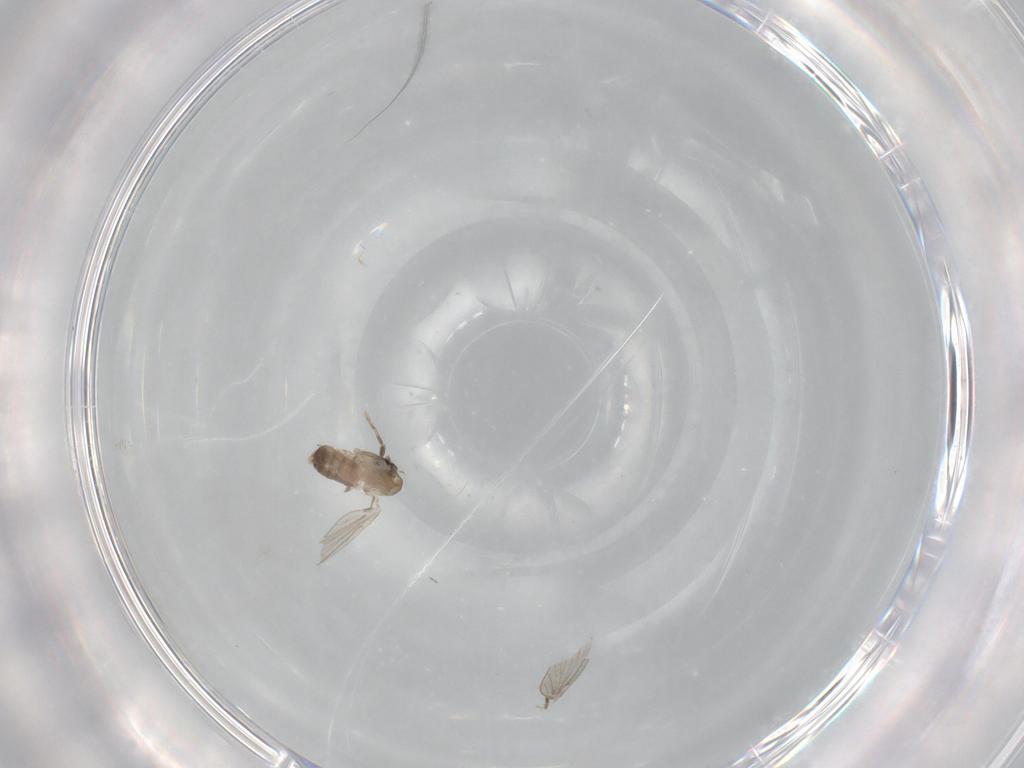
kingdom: Animalia
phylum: Arthropoda
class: Insecta
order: Diptera
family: Psychodidae
